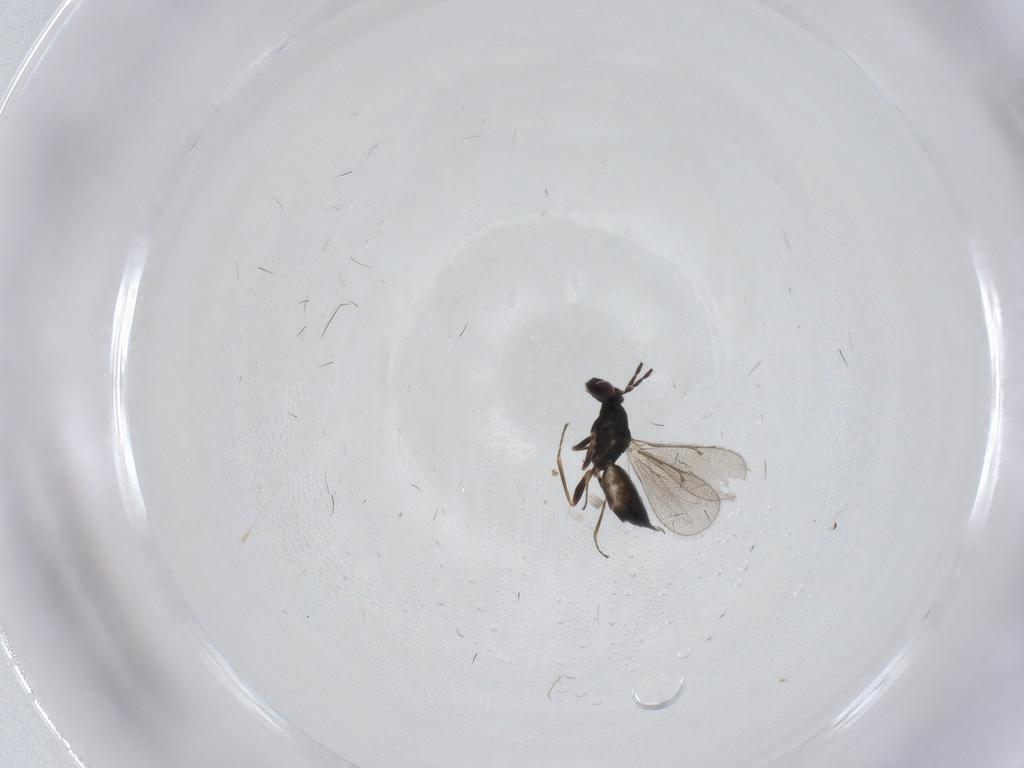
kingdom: Animalia
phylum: Arthropoda
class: Insecta
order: Hymenoptera
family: Eulophidae
